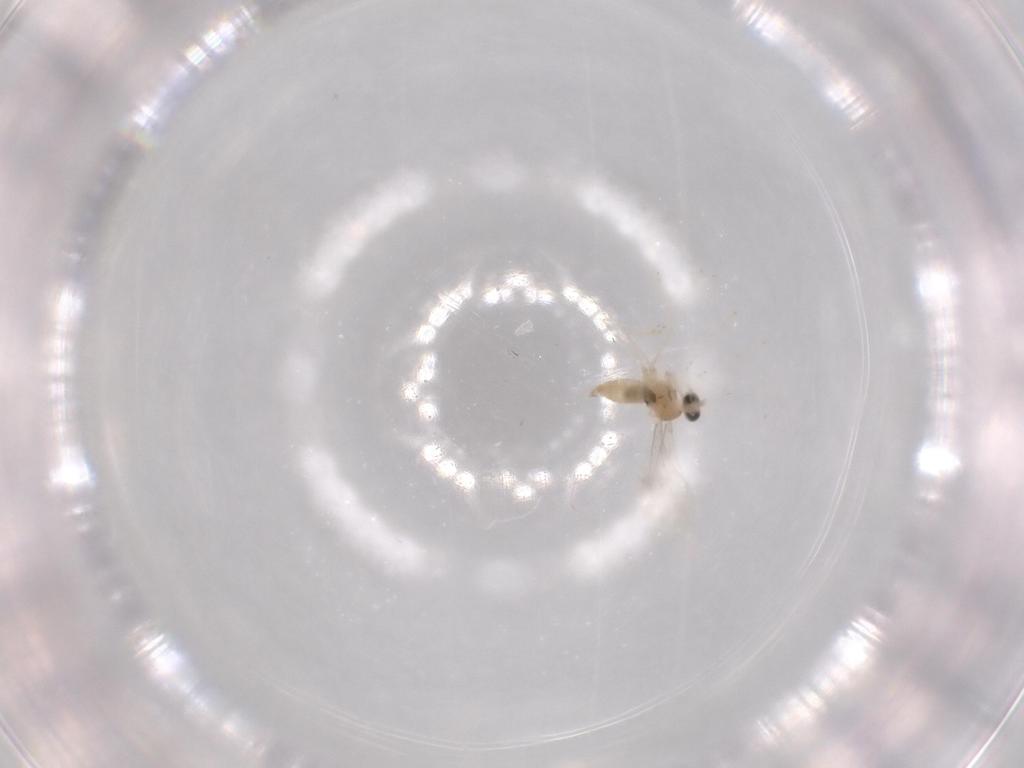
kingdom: Animalia
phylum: Arthropoda
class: Insecta
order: Diptera
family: Cecidomyiidae
